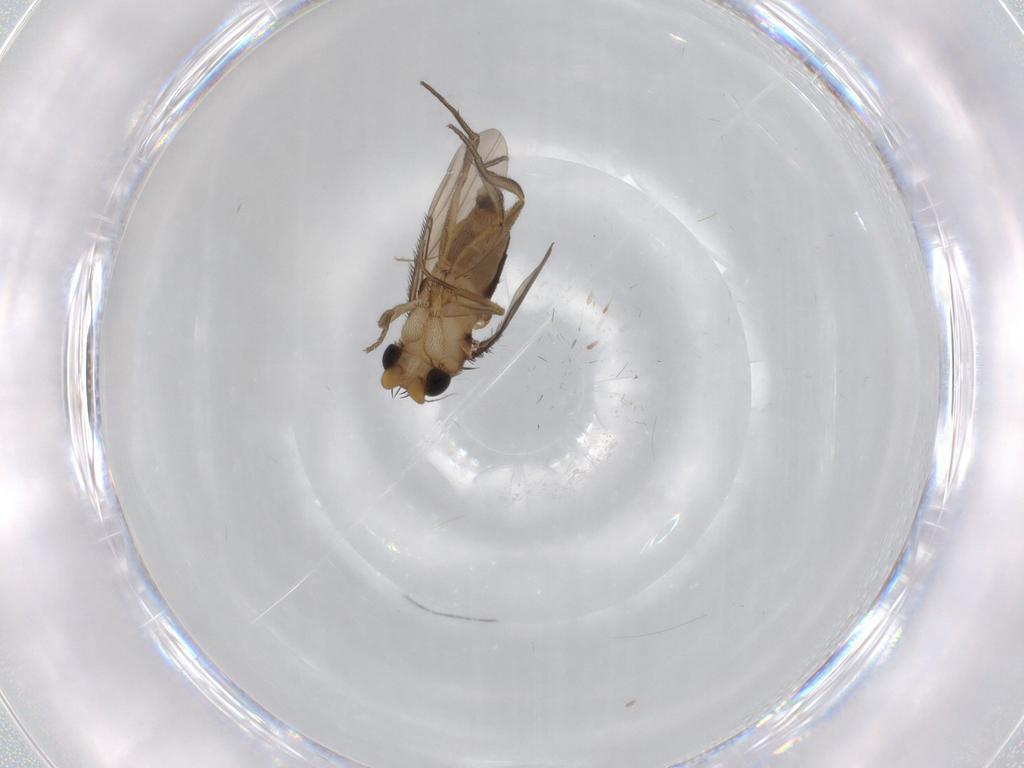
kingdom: Animalia
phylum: Arthropoda
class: Insecta
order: Diptera
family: Phoridae
